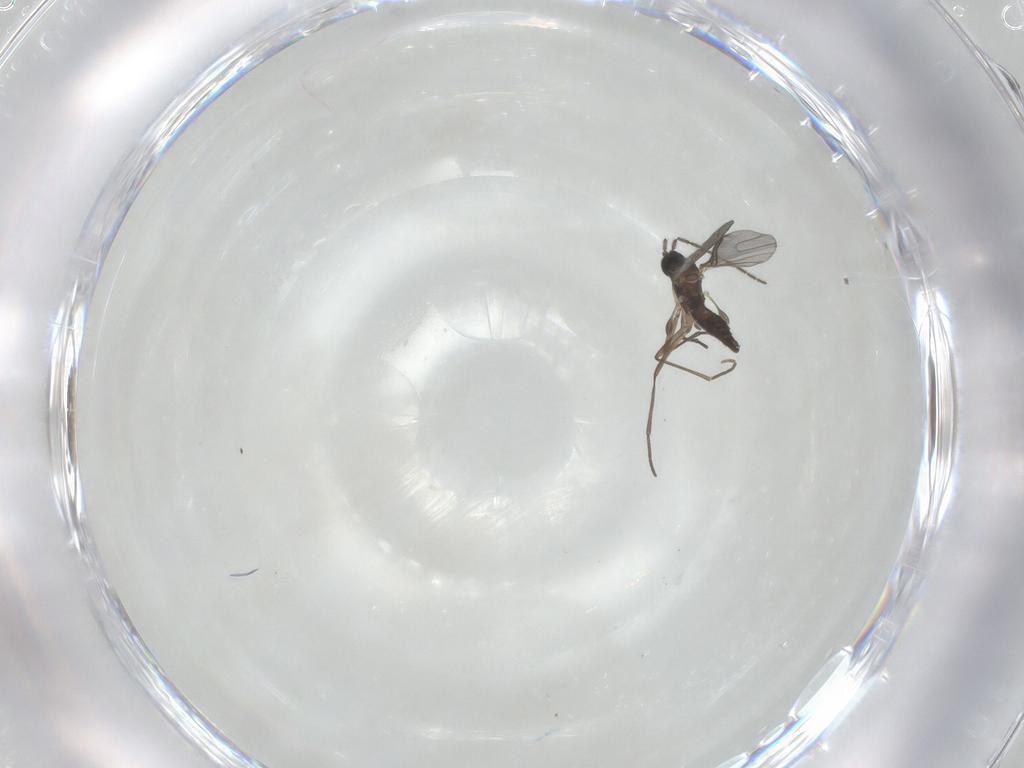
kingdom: Animalia
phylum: Arthropoda
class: Insecta
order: Diptera
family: Sciaridae
